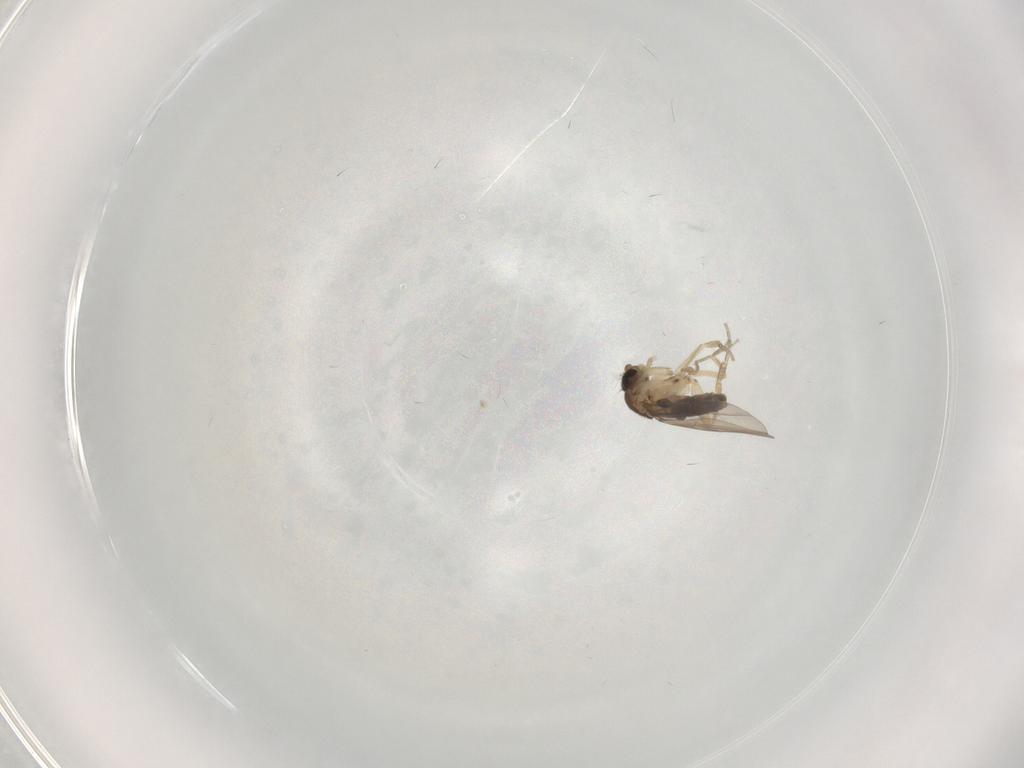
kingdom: Animalia
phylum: Arthropoda
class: Insecta
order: Diptera
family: Phoridae
